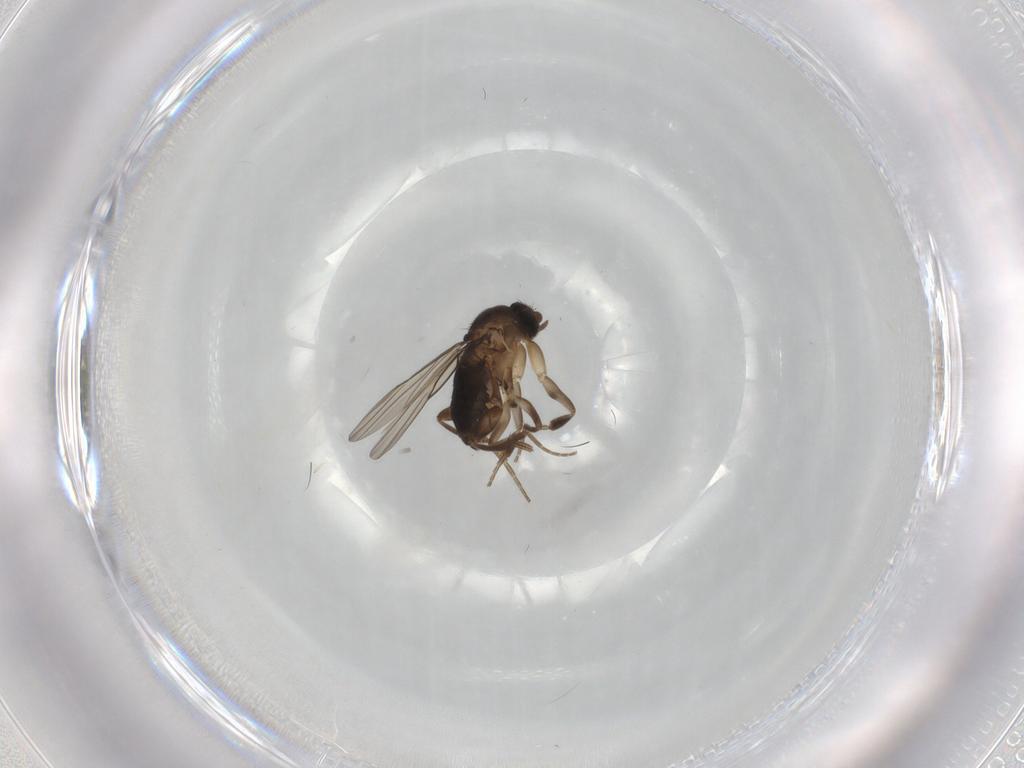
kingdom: Animalia
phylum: Arthropoda
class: Insecta
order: Diptera
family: Phoridae
